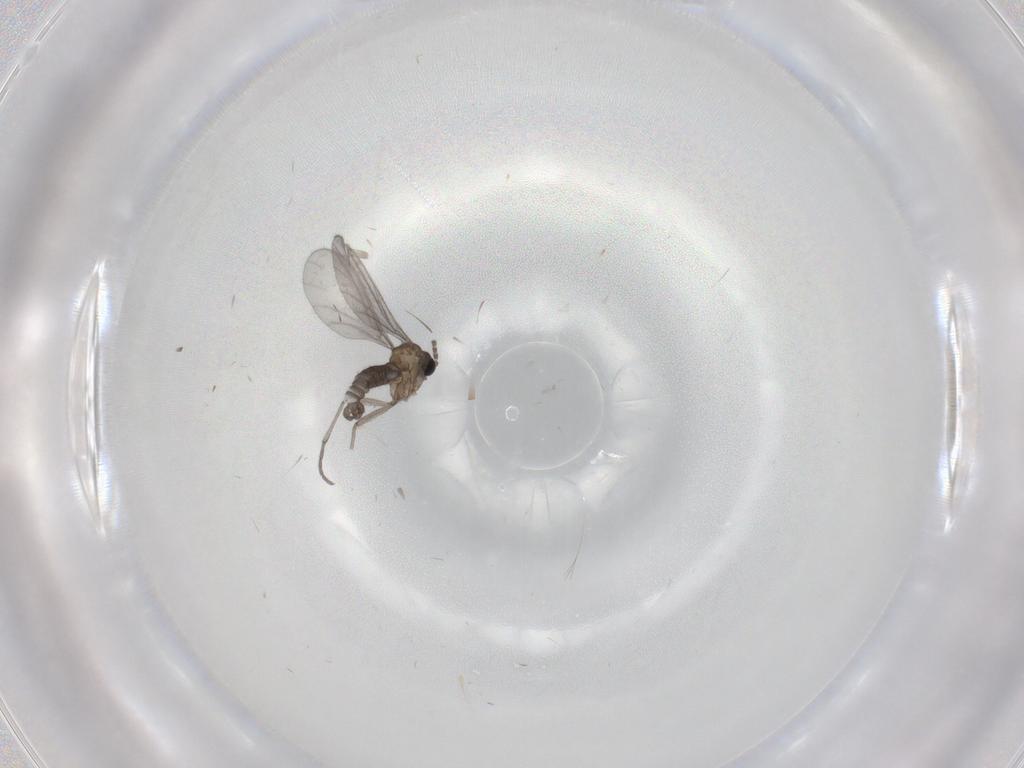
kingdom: Animalia
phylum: Arthropoda
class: Insecta
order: Diptera
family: Sciaridae
